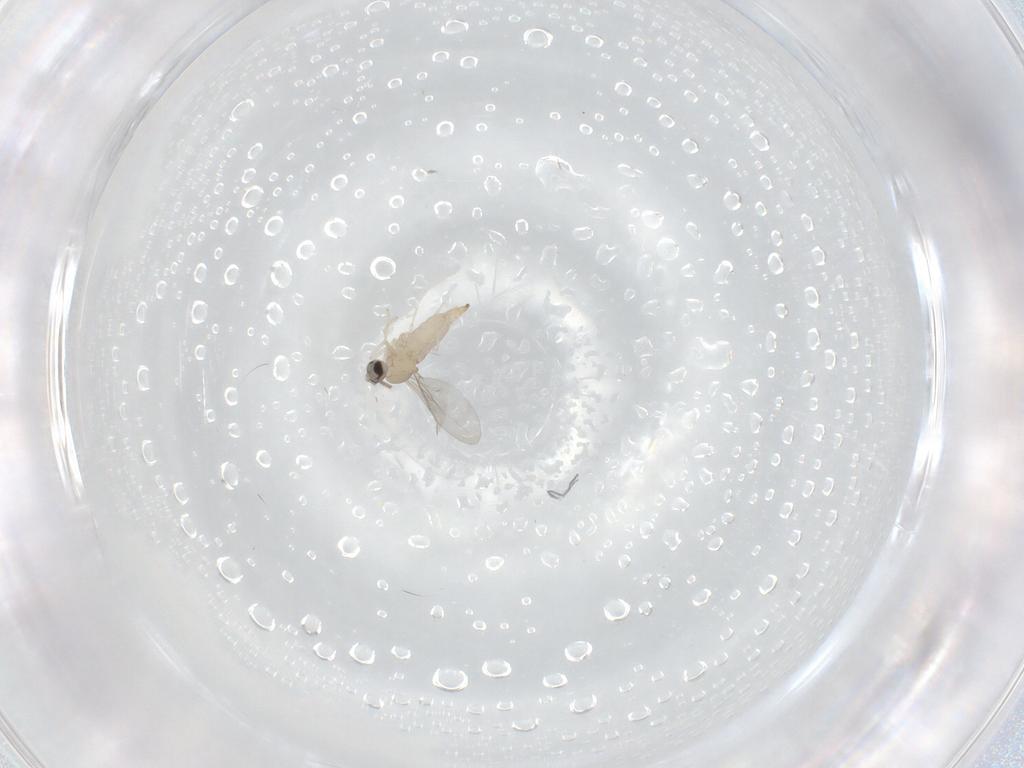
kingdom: Animalia
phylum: Arthropoda
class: Insecta
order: Diptera
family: Cecidomyiidae
